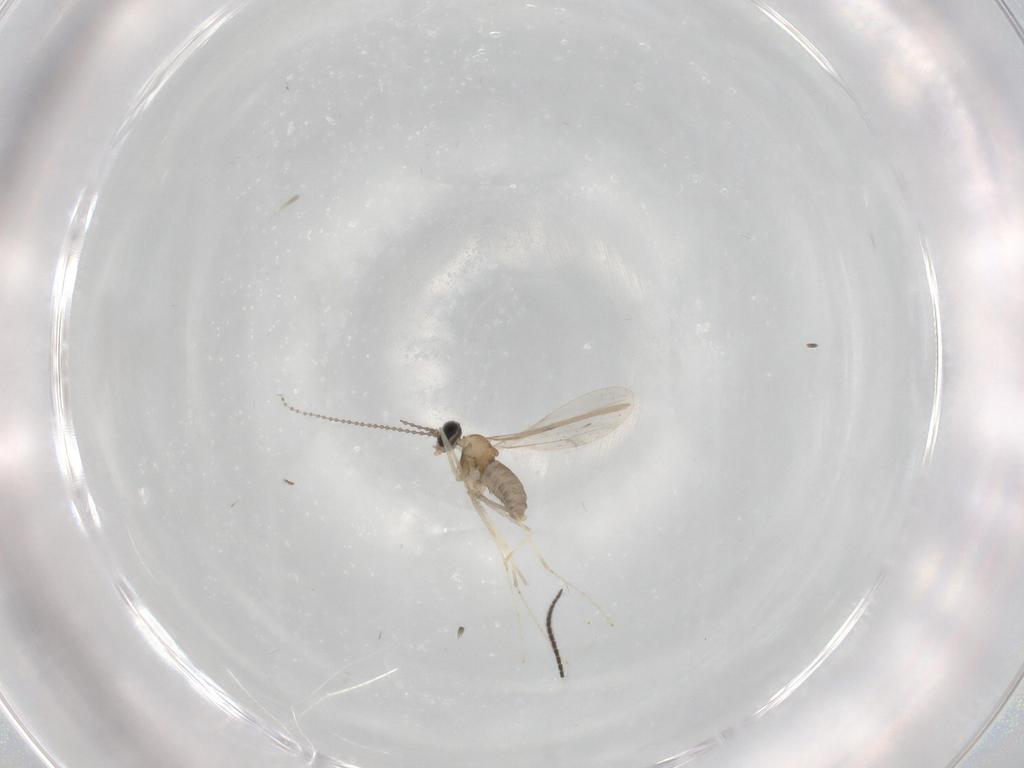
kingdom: Animalia
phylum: Arthropoda
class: Insecta
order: Diptera
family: Cecidomyiidae
